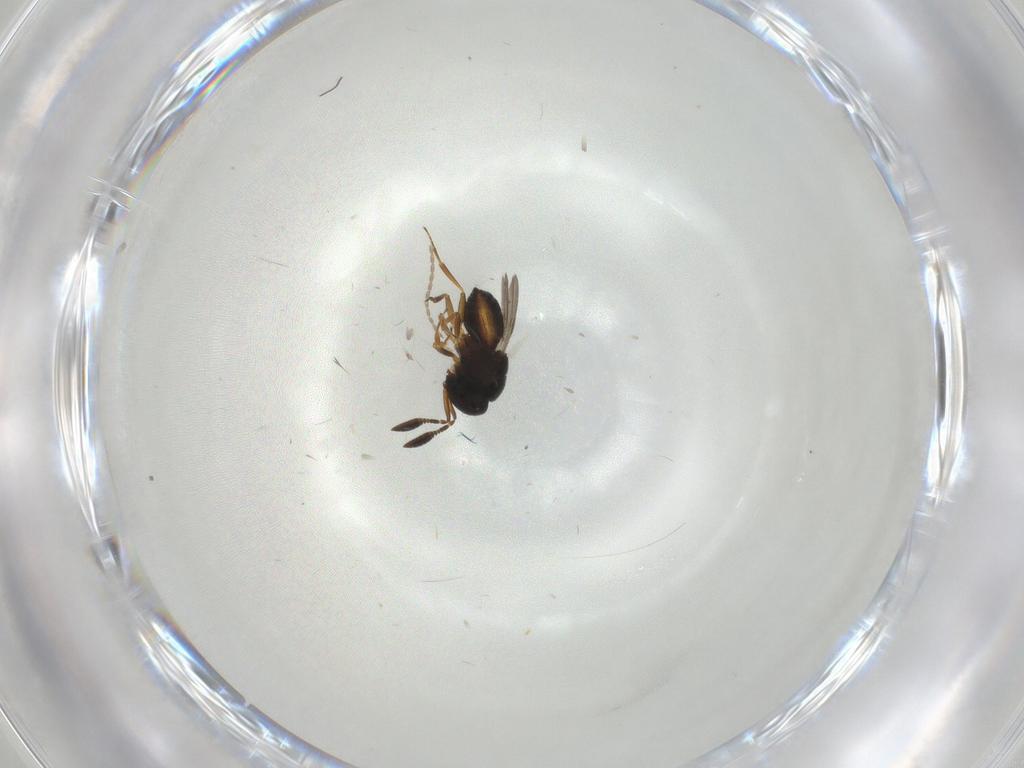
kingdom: Animalia
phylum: Arthropoda
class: Insecta
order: Hymenoptera
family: Scelionidae
